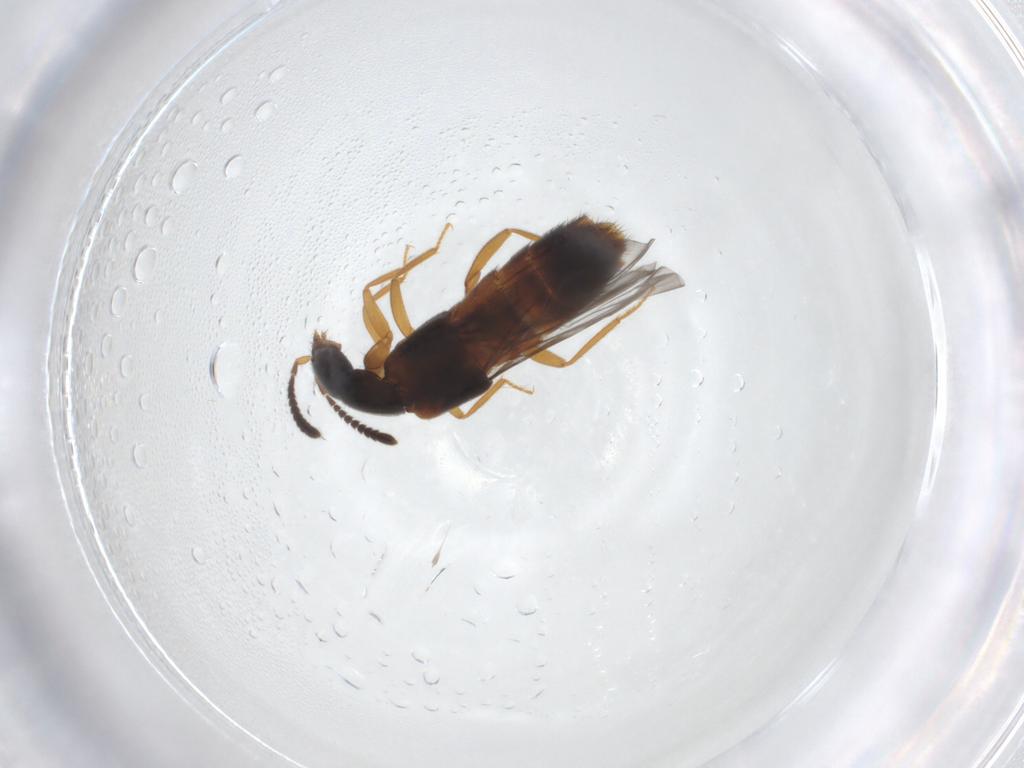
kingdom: Animalia
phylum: Arthropoda
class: Insecta
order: Coleoptera
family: Staphylinidae
